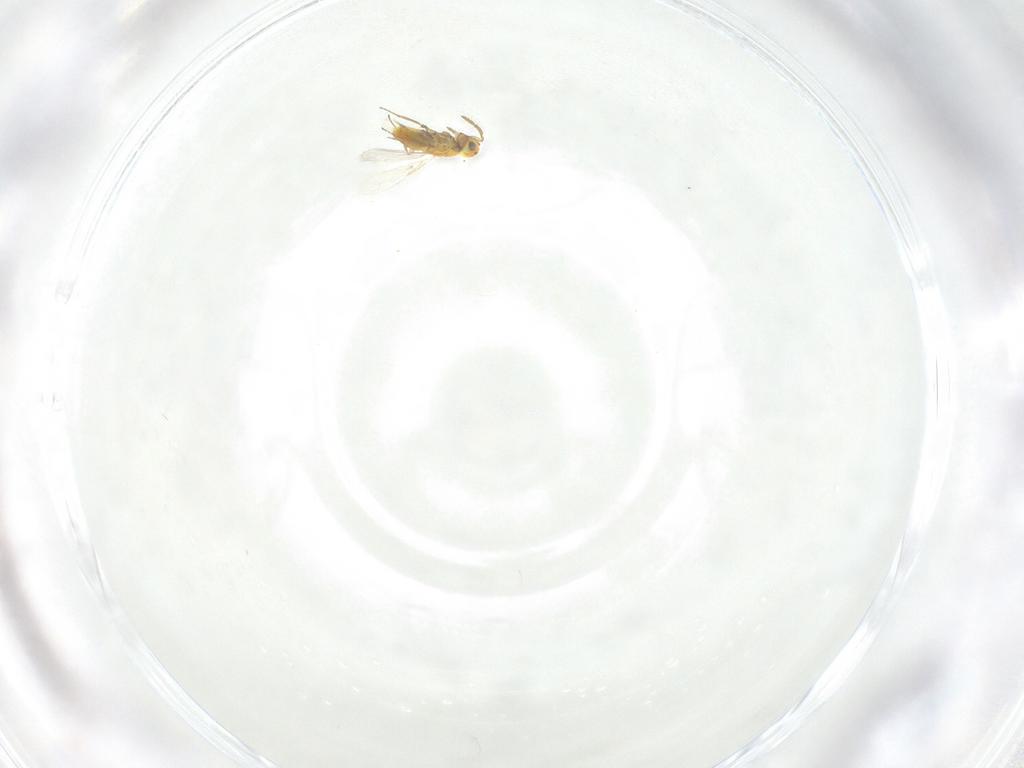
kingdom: Animalia
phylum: Arthropoda
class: Insecta
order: Hymenoptera
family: Aphelinidae
